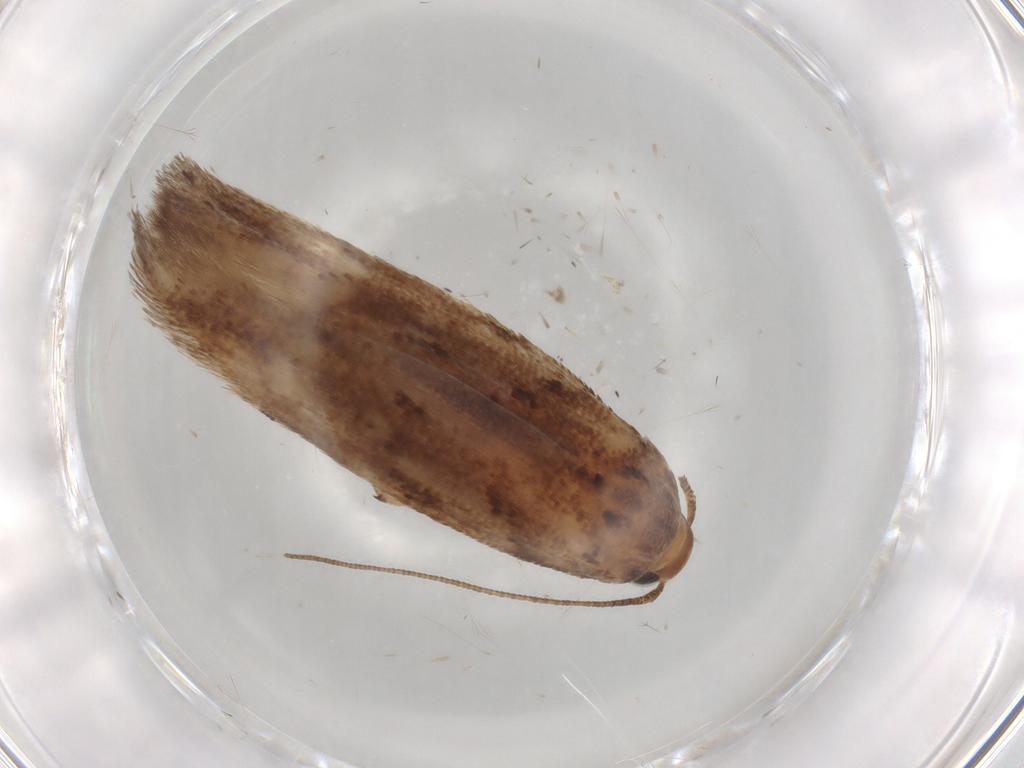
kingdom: Animalia
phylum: Arthropoda
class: Insecta
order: Lepidoptera
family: Gelechiidae
